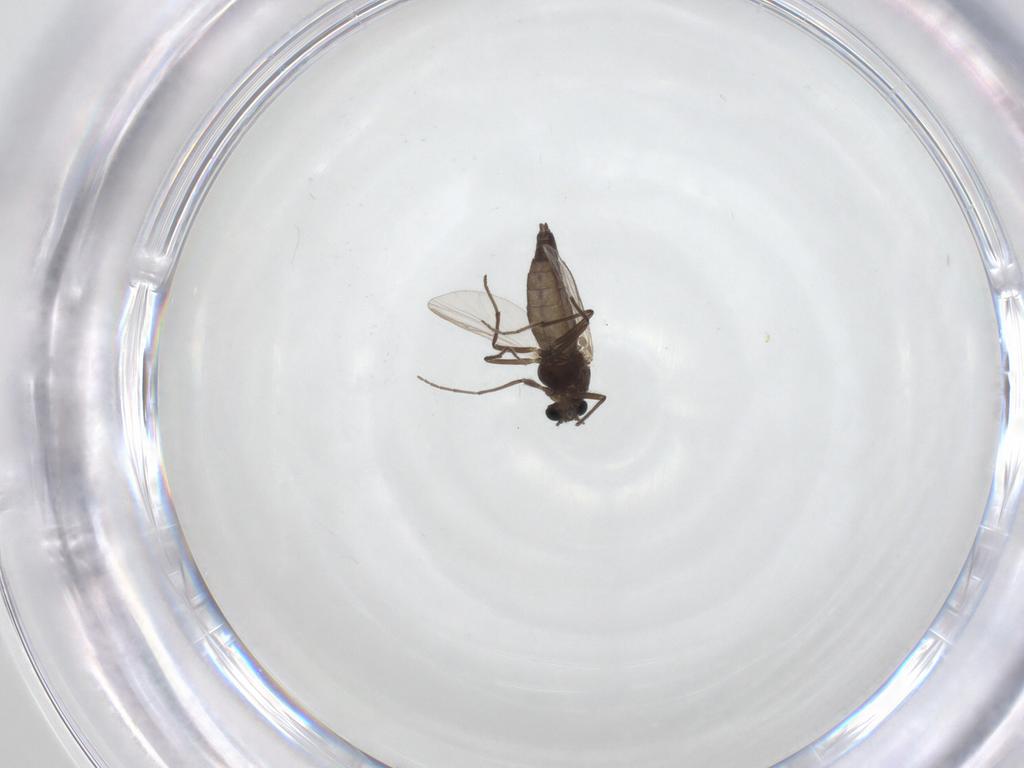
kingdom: Animalia
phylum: Arthropoda
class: Insecta
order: Diptera
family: Chironomidae
